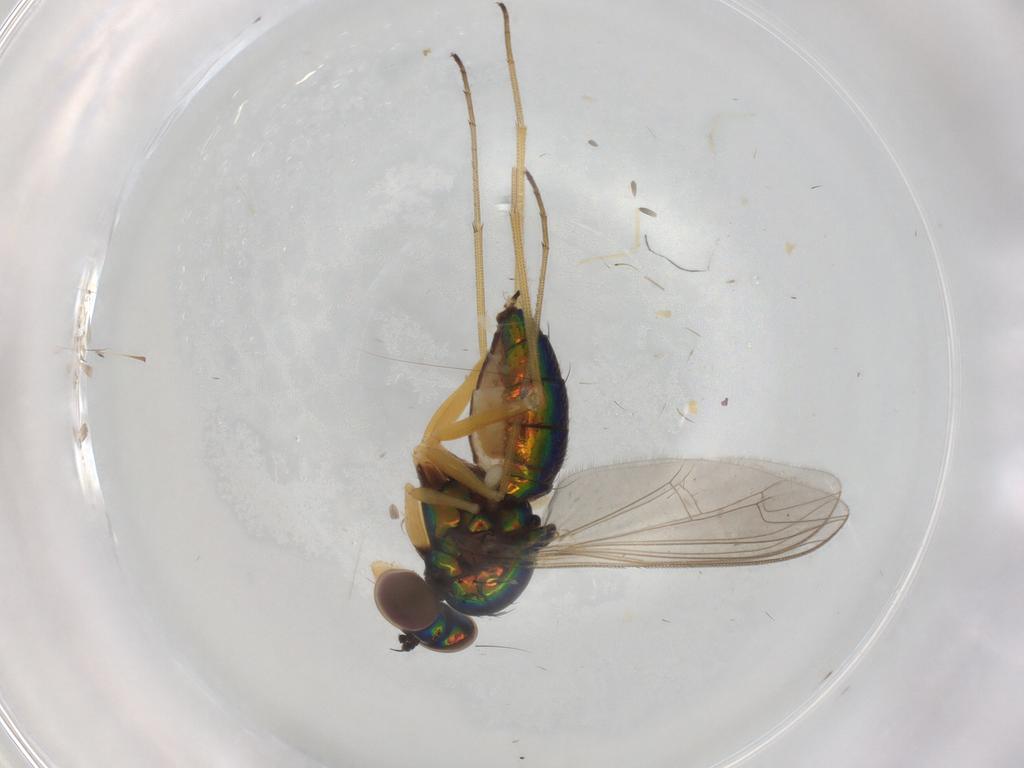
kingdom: Animalia
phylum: Arthropoda
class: Insecta
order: Diptera
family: Dolichopodidae
